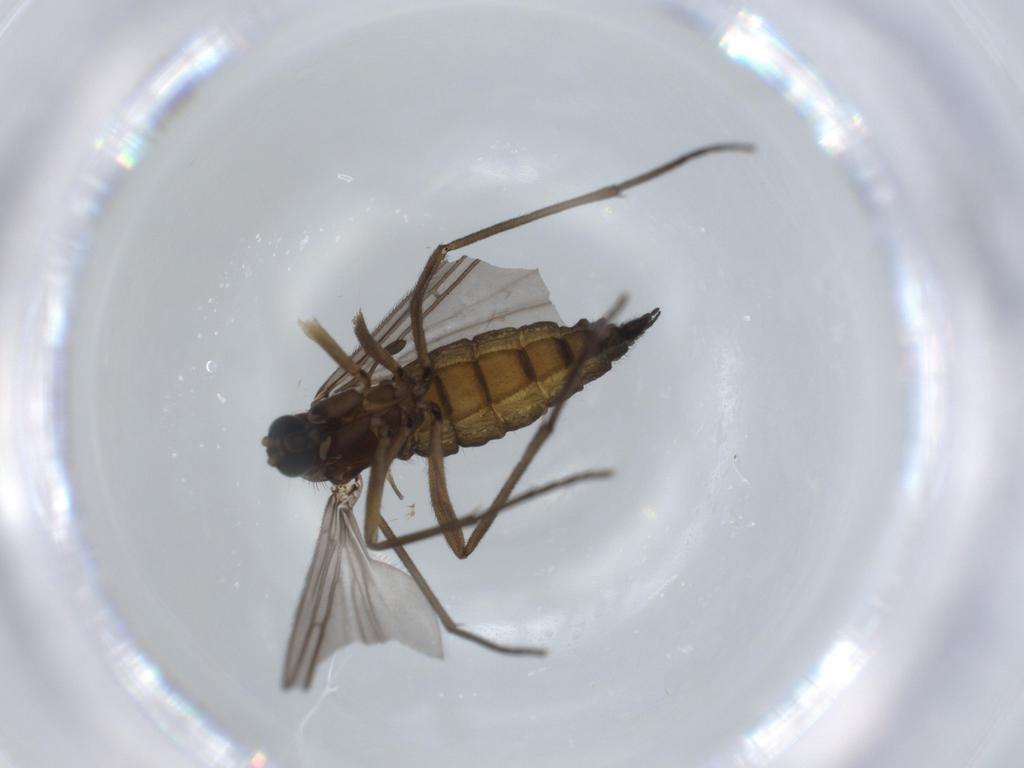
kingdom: Animalia
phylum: Arthropoda
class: Insecta
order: Diptera
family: Sciaridae
